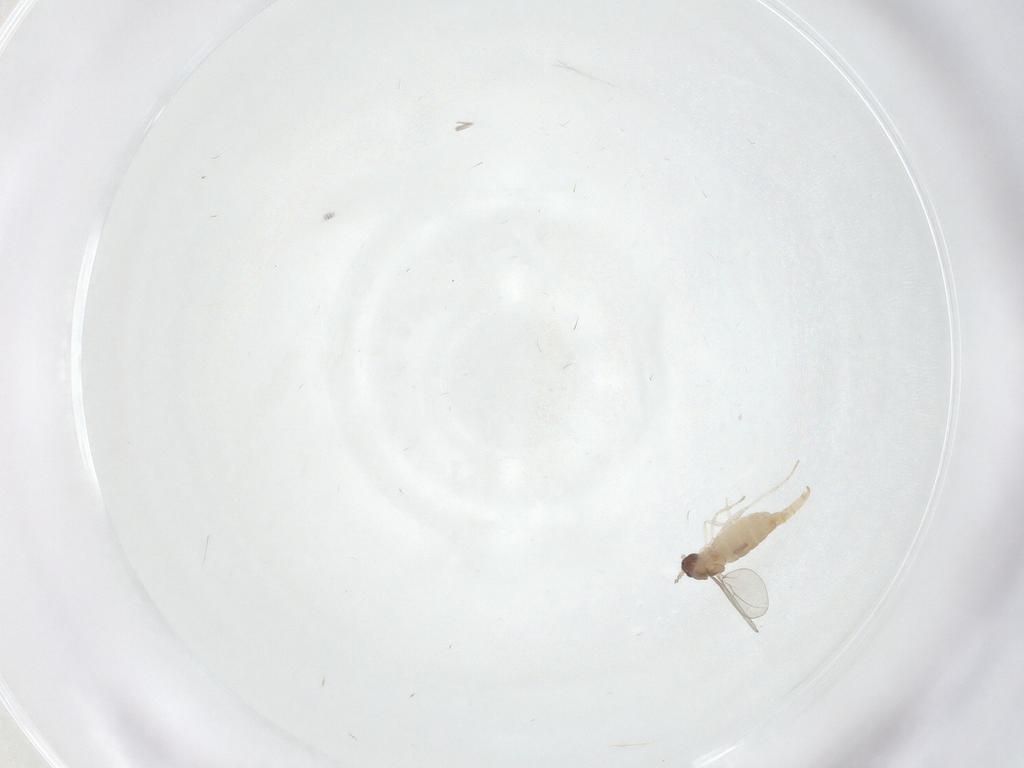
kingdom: Animalia
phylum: Arthropoda
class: Insecta
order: Diptera
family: Cecidomyiidae
